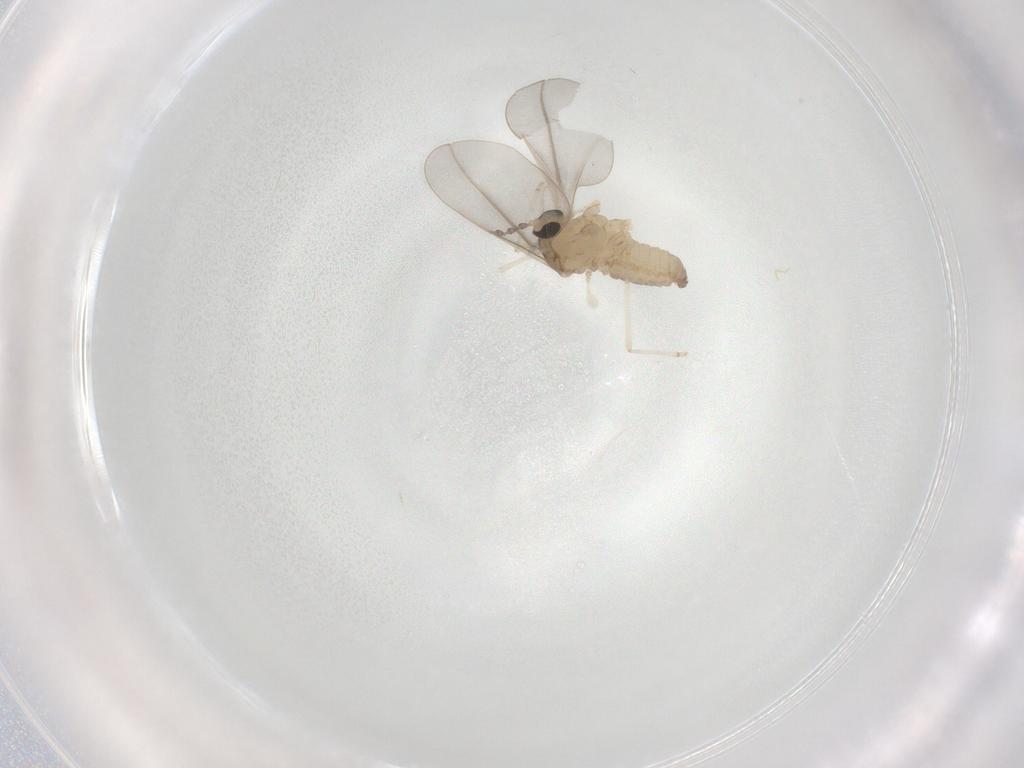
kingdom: Animalia
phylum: Arthropoda
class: Insecta
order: Diptera
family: Cecidomyiidae
